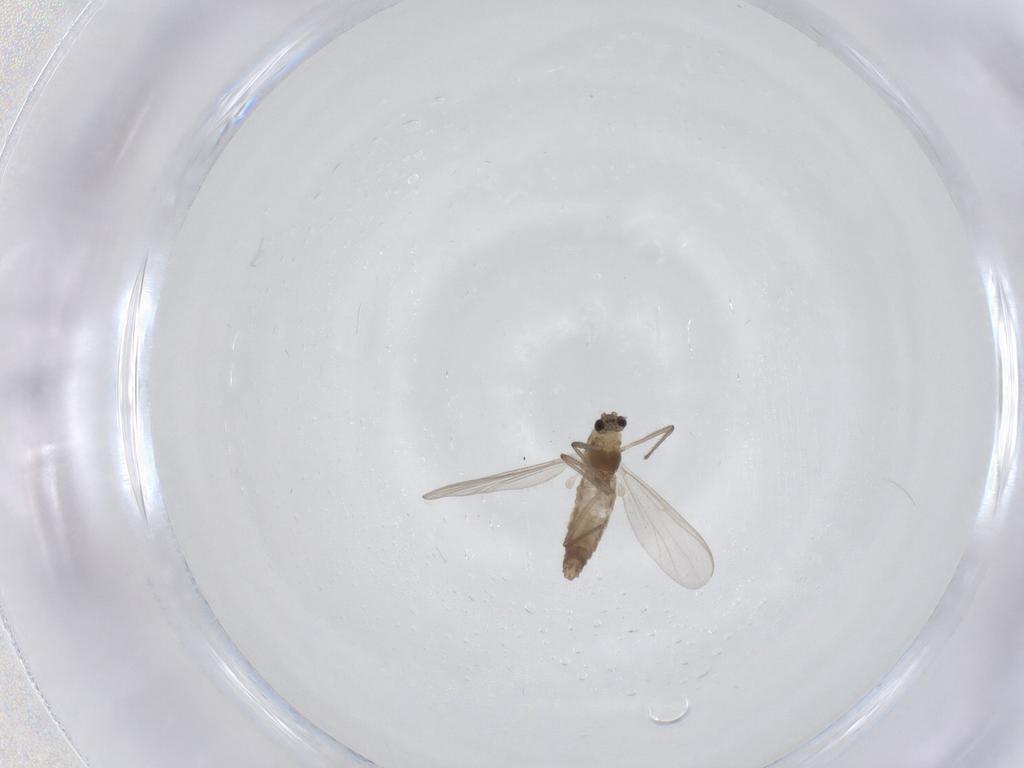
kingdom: Animalia
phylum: Arthropoda
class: Insecta
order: Diptera
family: Chironomidae
